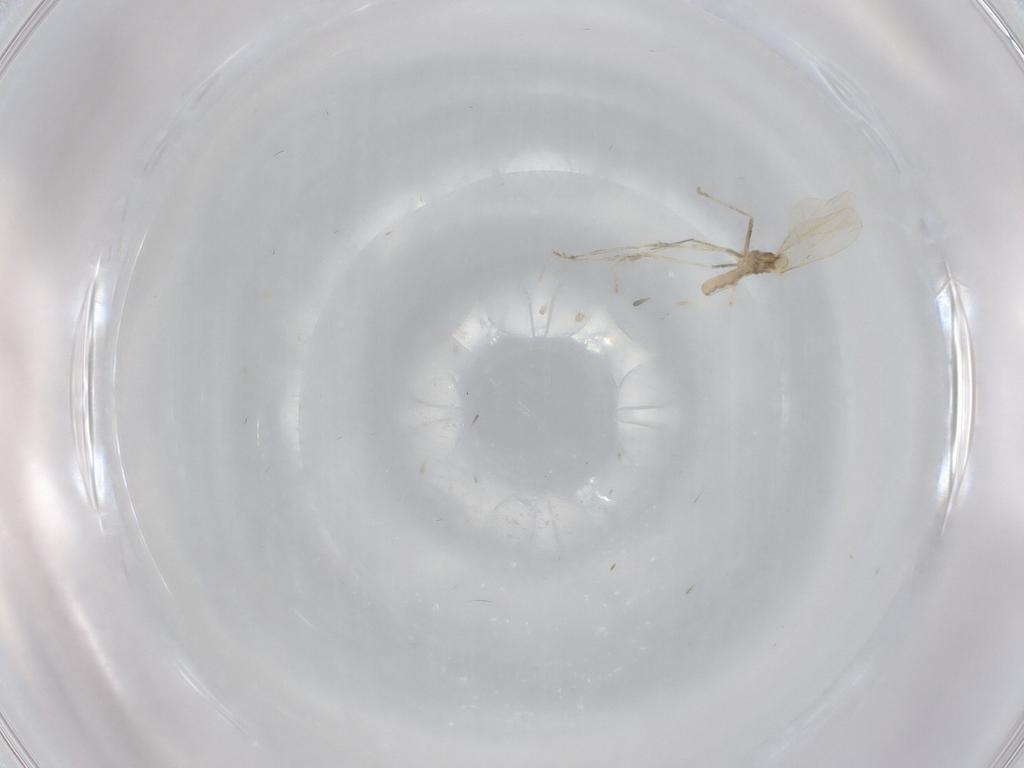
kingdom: Animalia
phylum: Arthropoda
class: Insecta
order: Diptera
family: Cecidomyiidae
